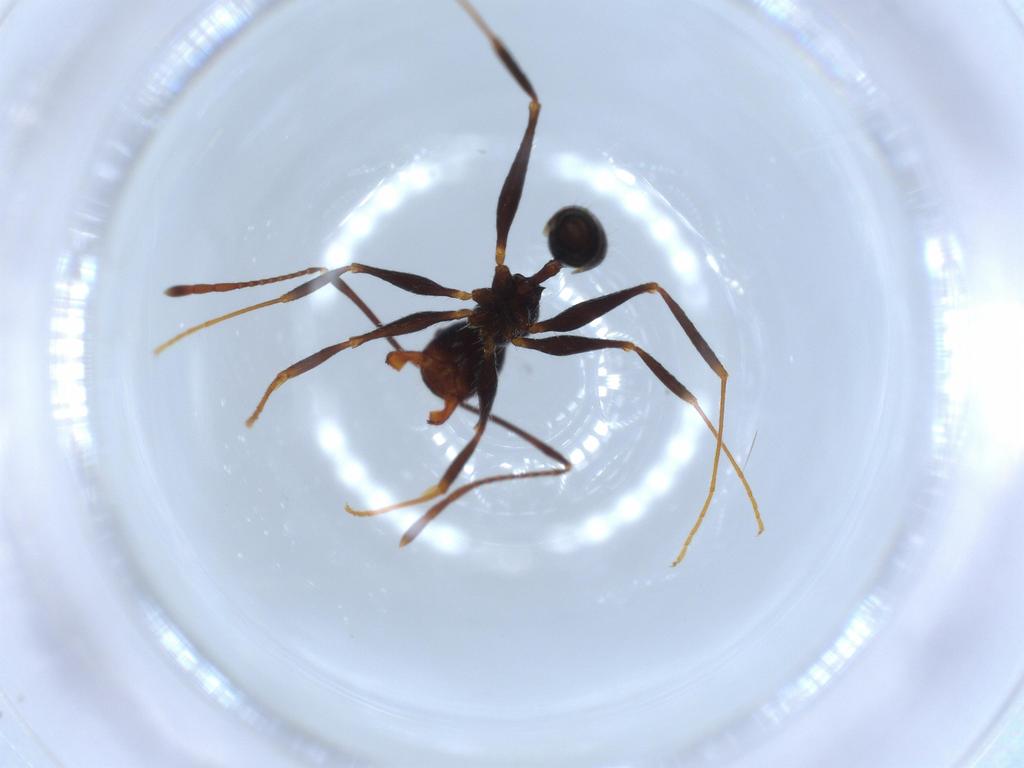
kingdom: Animalia
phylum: Arthropoda
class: Insecta
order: Hymenoptera
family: Formicidae
